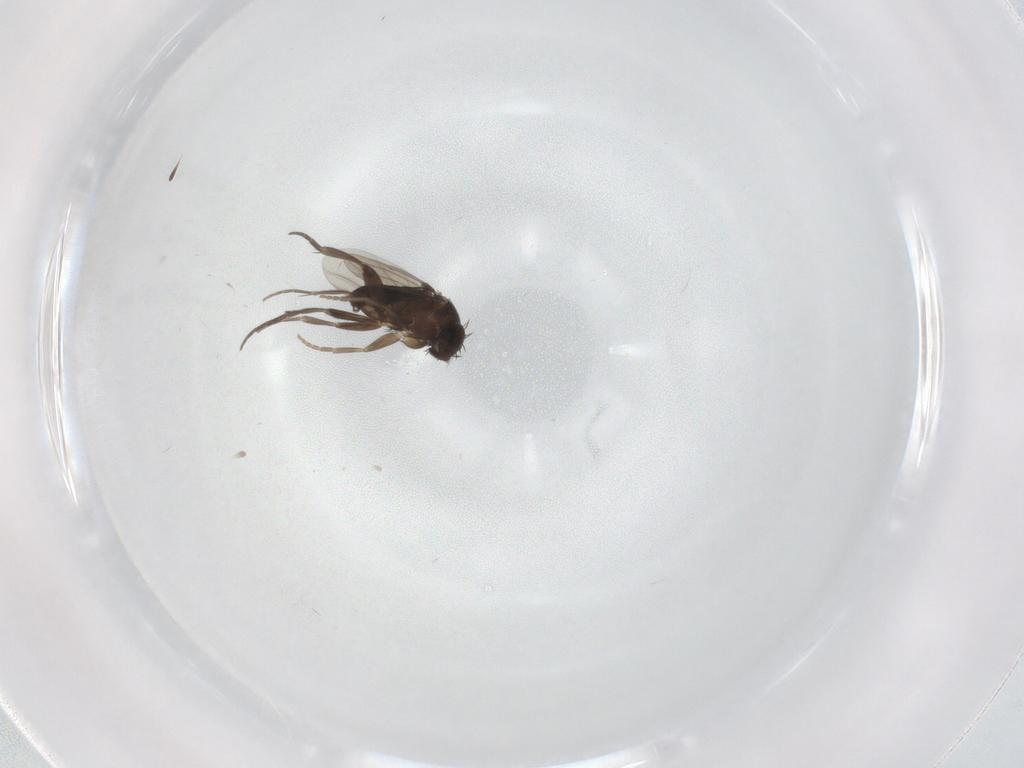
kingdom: Animalia
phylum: Arthropoda
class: Insecta
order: Diptera
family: Phoridae
